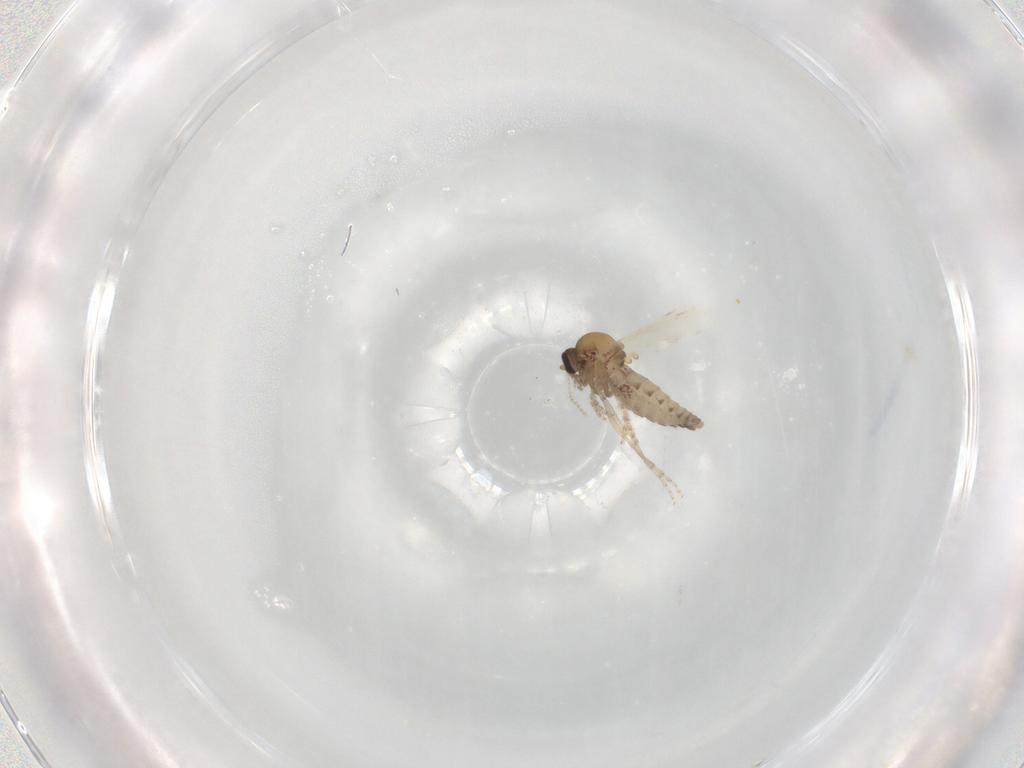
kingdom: Animalia
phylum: Arthropoda
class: Insecta
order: Diptera
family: Ceratopogonidae
